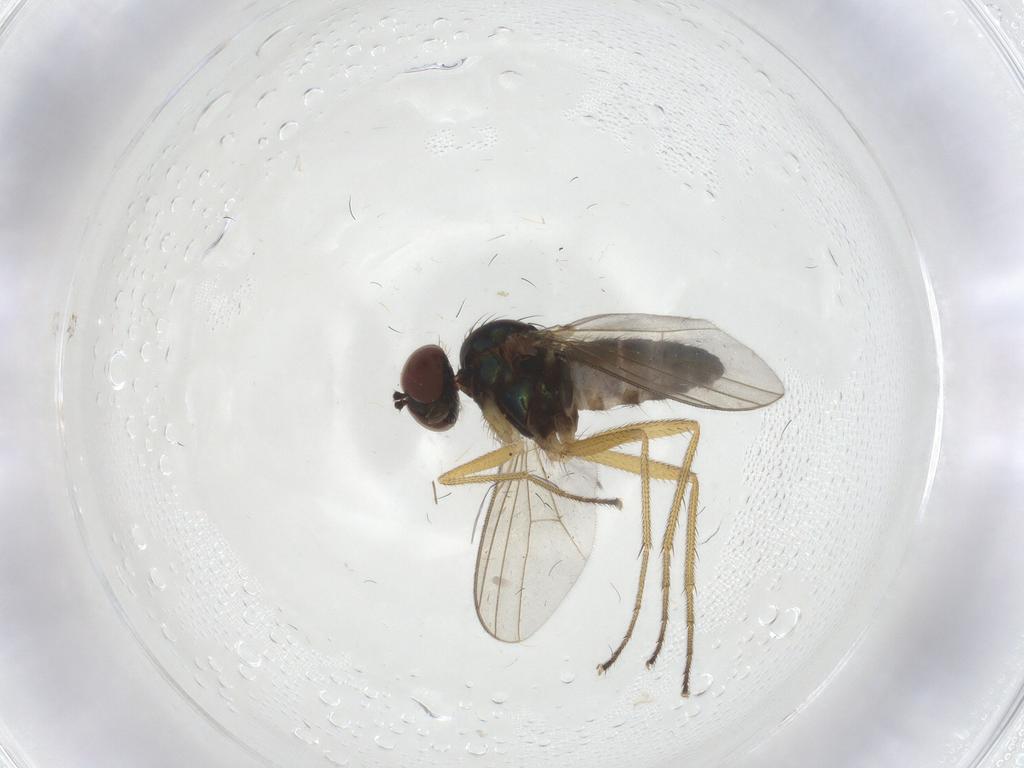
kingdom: Animalia
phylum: Arthropoda
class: Insecta
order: Diptera
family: Dolichopodidae
